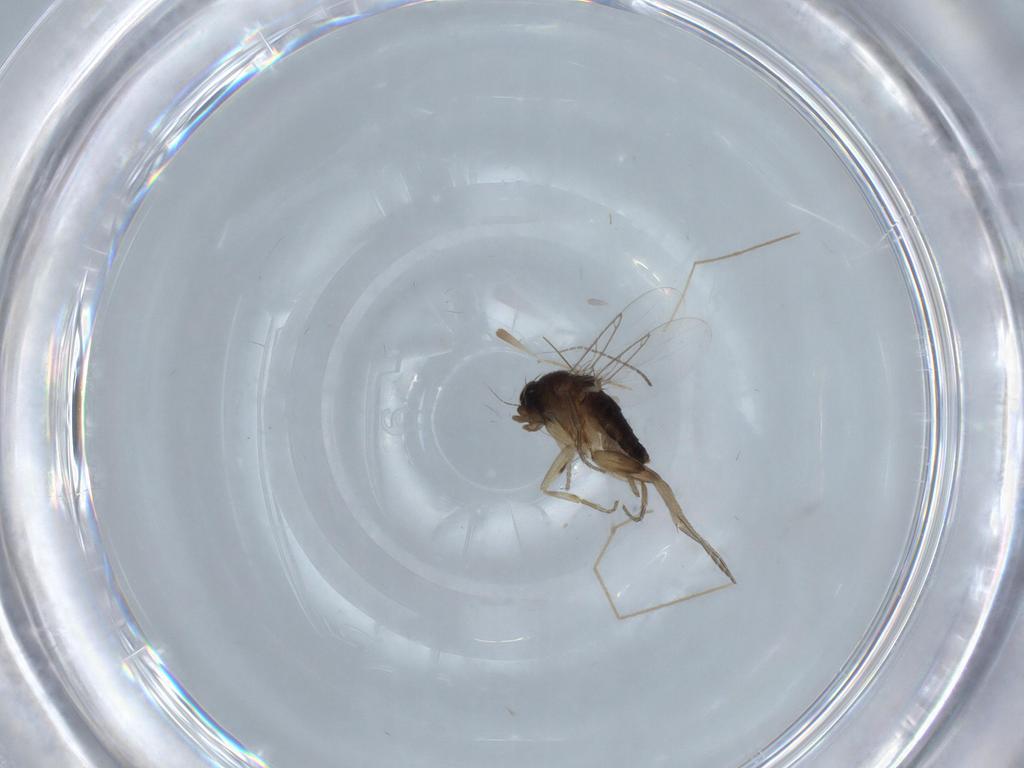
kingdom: Animalia
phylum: Arthropoda
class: Insecta
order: Diptera
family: Phoridae
